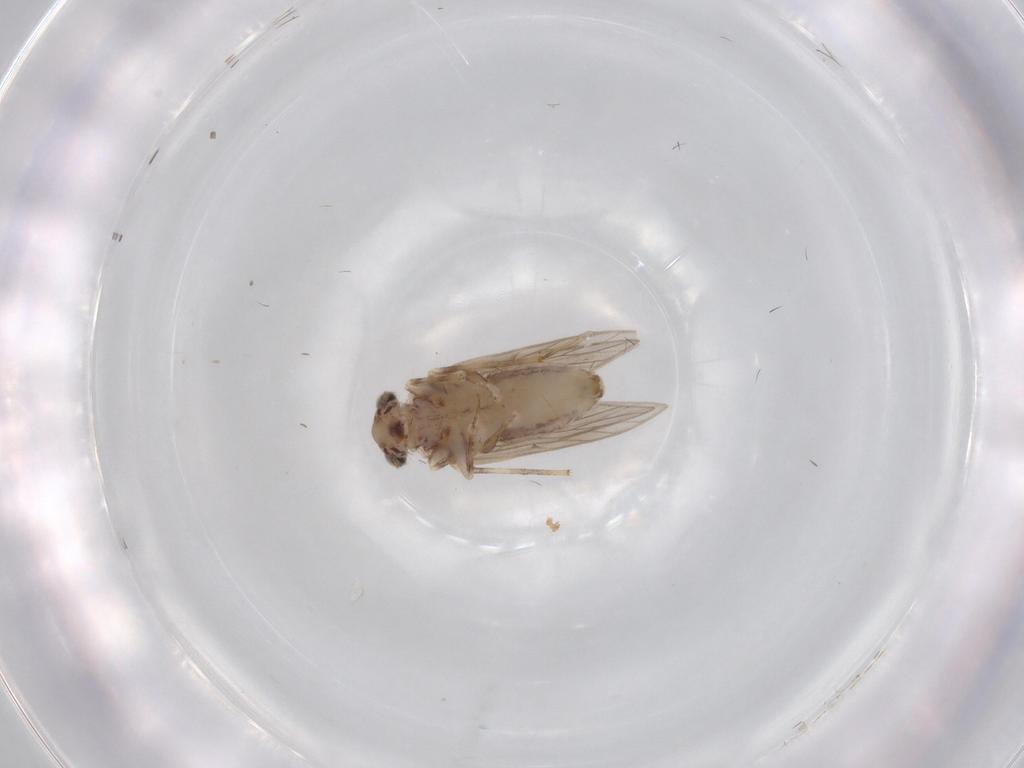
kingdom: Animalia
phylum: Arthropoda
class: Insecta
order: Psocodea
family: Lepidopsocidae
